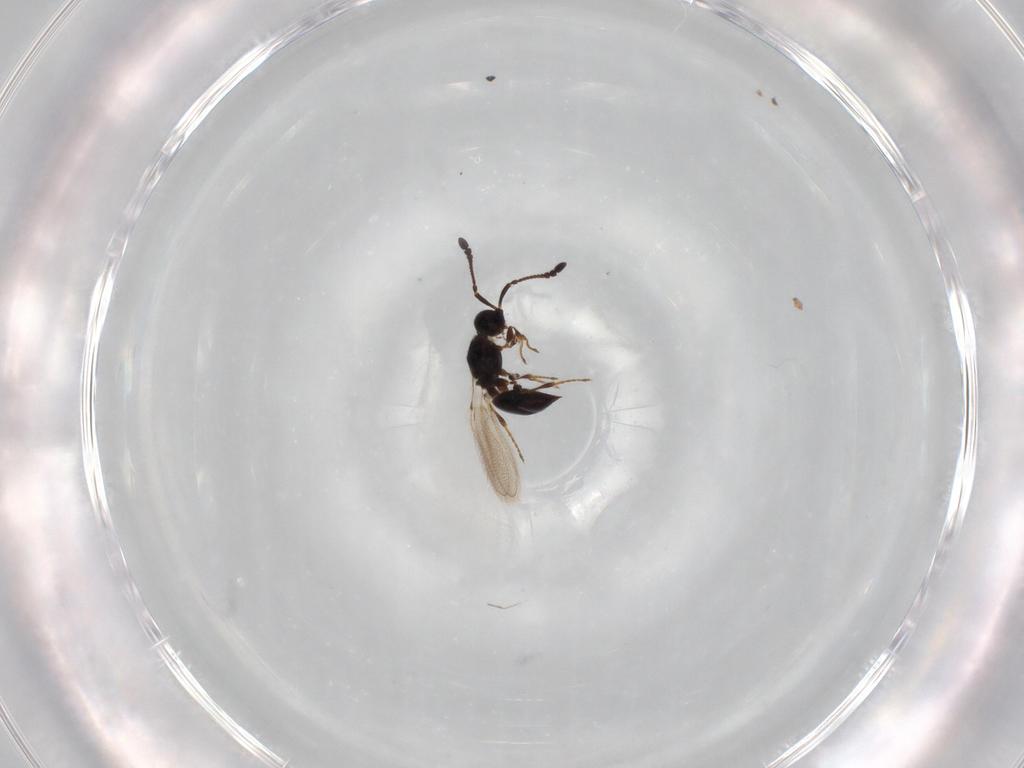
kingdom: Animalia
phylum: Arthropoda
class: Insecta
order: Hymenoptera
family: Diapriidae
